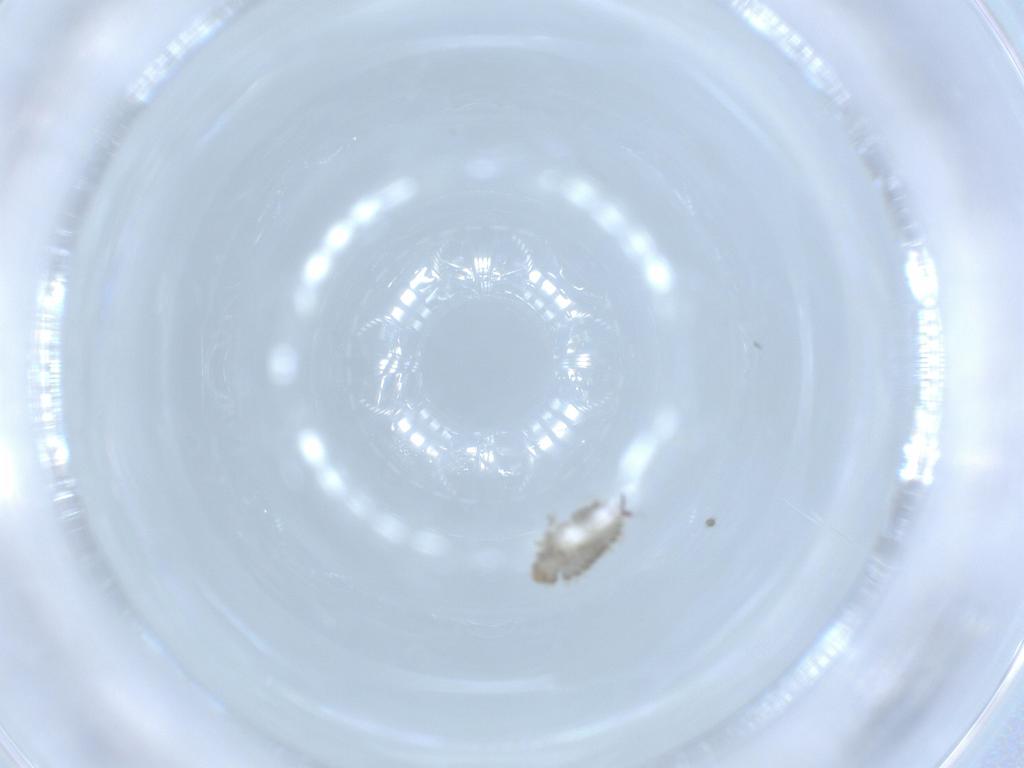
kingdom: Animalia
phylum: Arthropoda
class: Insecta
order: Coleoptera
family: Coccinellidae
